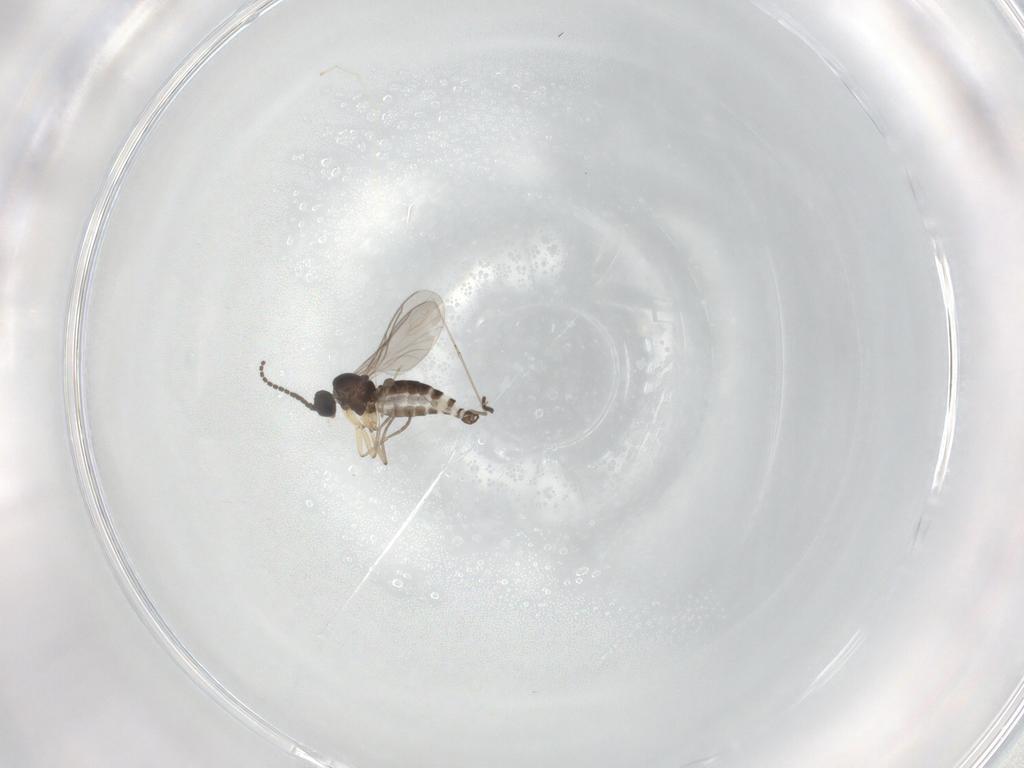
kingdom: Animalia
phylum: Arthropoda
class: Insecta
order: Diptera
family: Sciaridae
